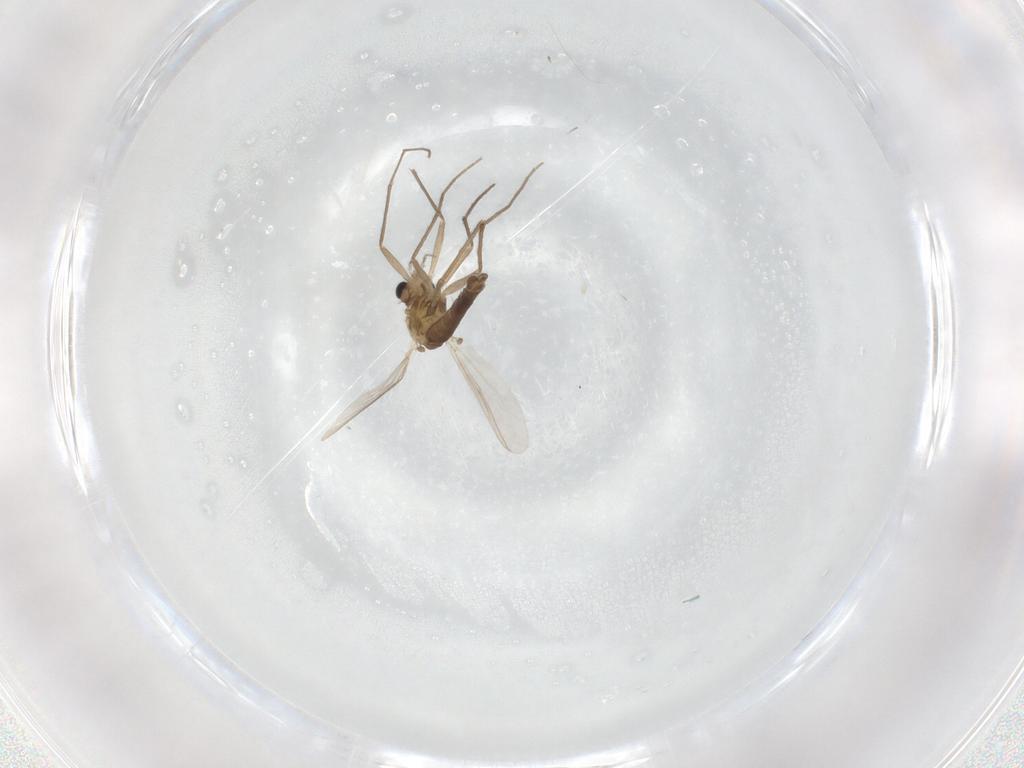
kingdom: Animalia
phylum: Arthropoda
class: Insecta
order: Diptera
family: Chironomidae
